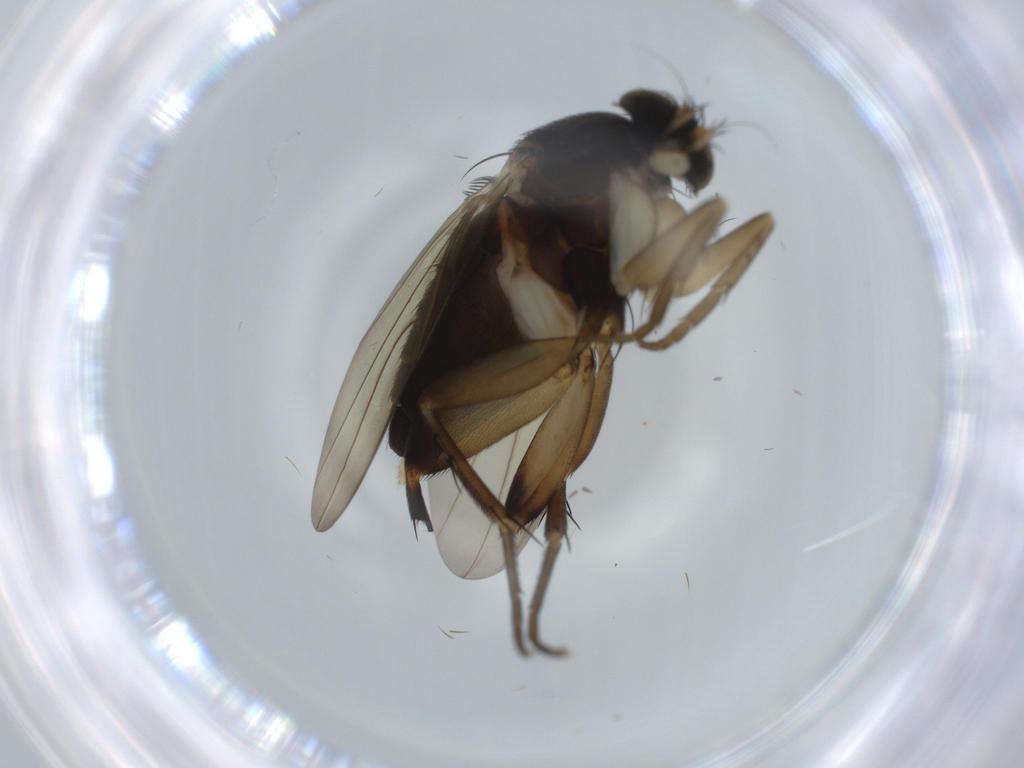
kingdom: Animalia
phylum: Arthropoda
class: Insecta
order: Diptera
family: Phoridae
